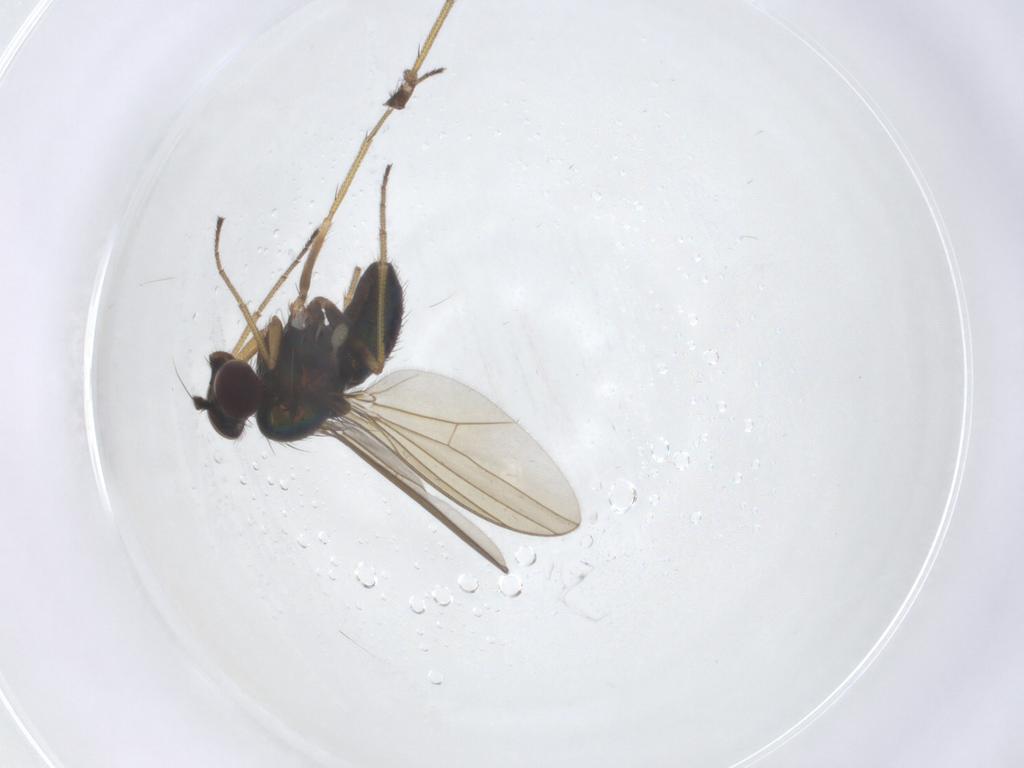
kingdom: Animalia
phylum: Arthropoda
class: Insecta
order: Diptera
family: Dolichopodidae
